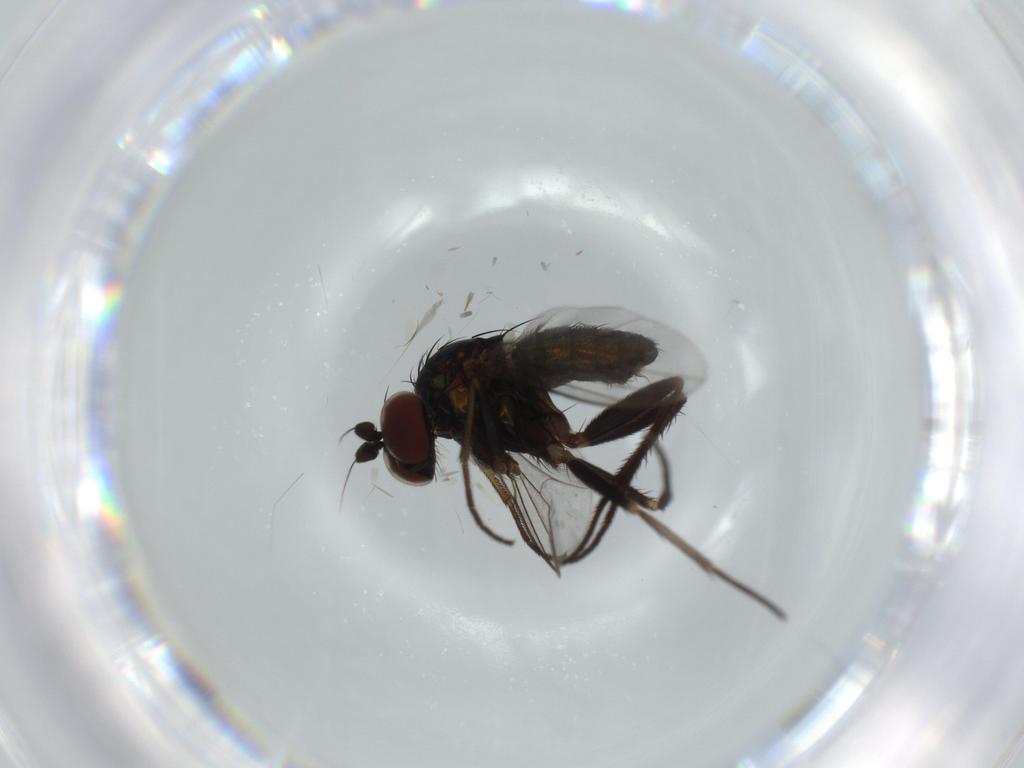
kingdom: Animalia
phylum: Arthropoda
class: Insecta
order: Diptera
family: Dolichopodidae
